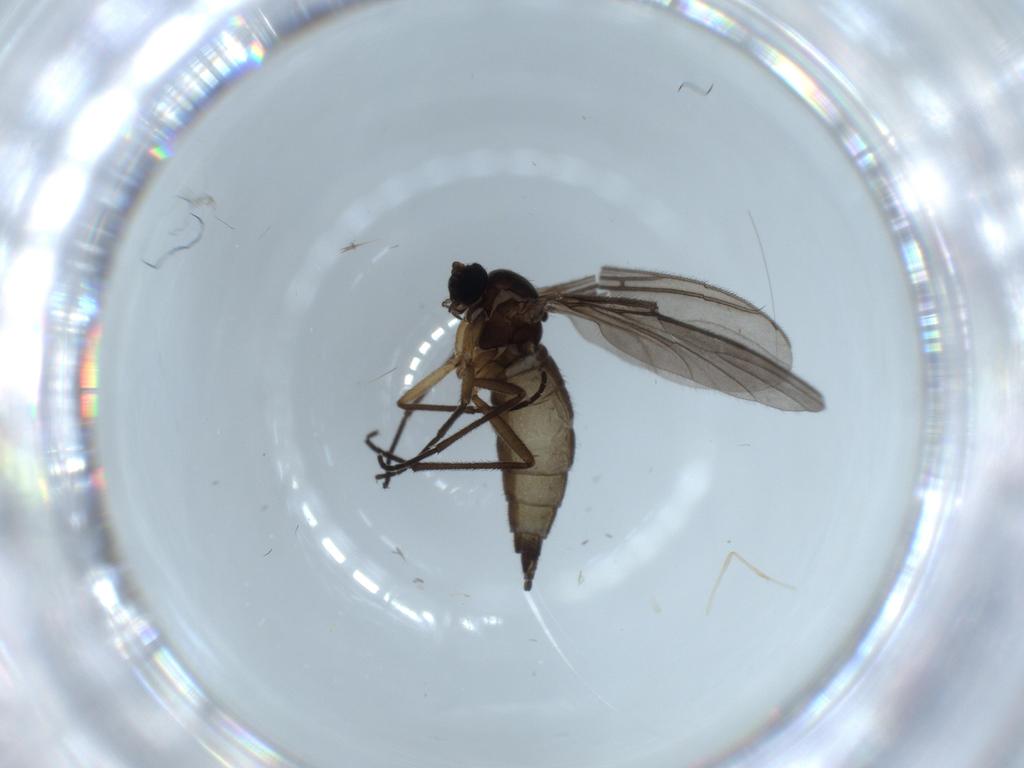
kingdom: Animalia
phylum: Arthropoda
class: Insecta
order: Diptera
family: Sciaridae
